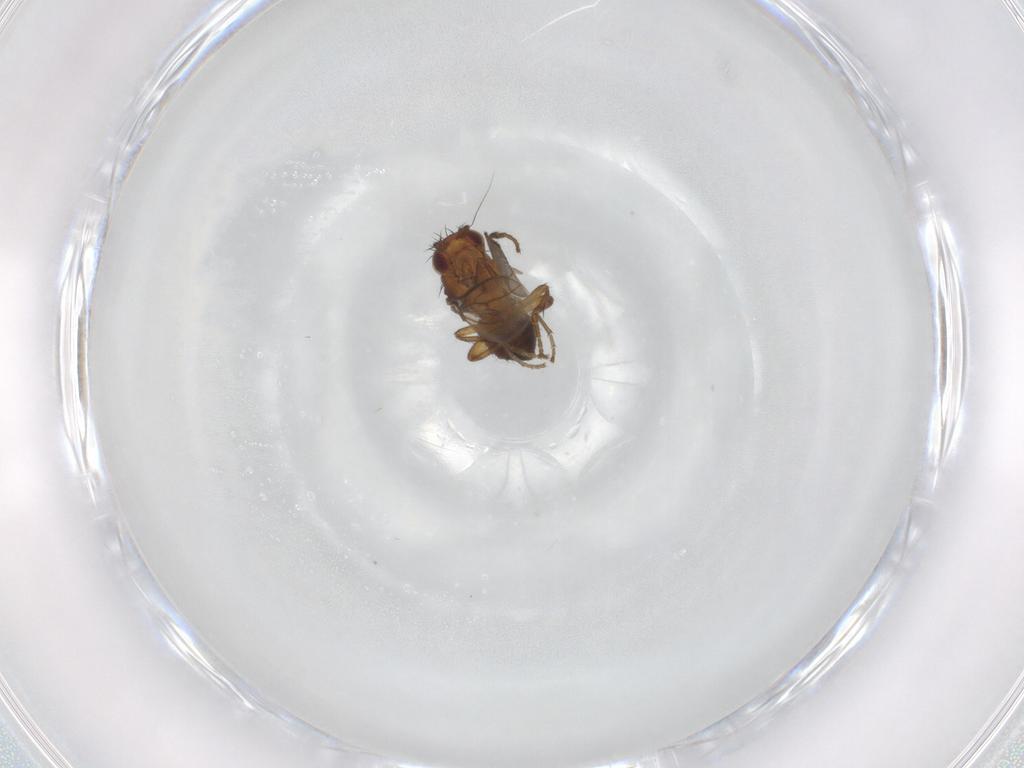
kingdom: Animalia
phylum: Arthropoda
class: Insecta
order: Diptera
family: Sphaeroceridae
